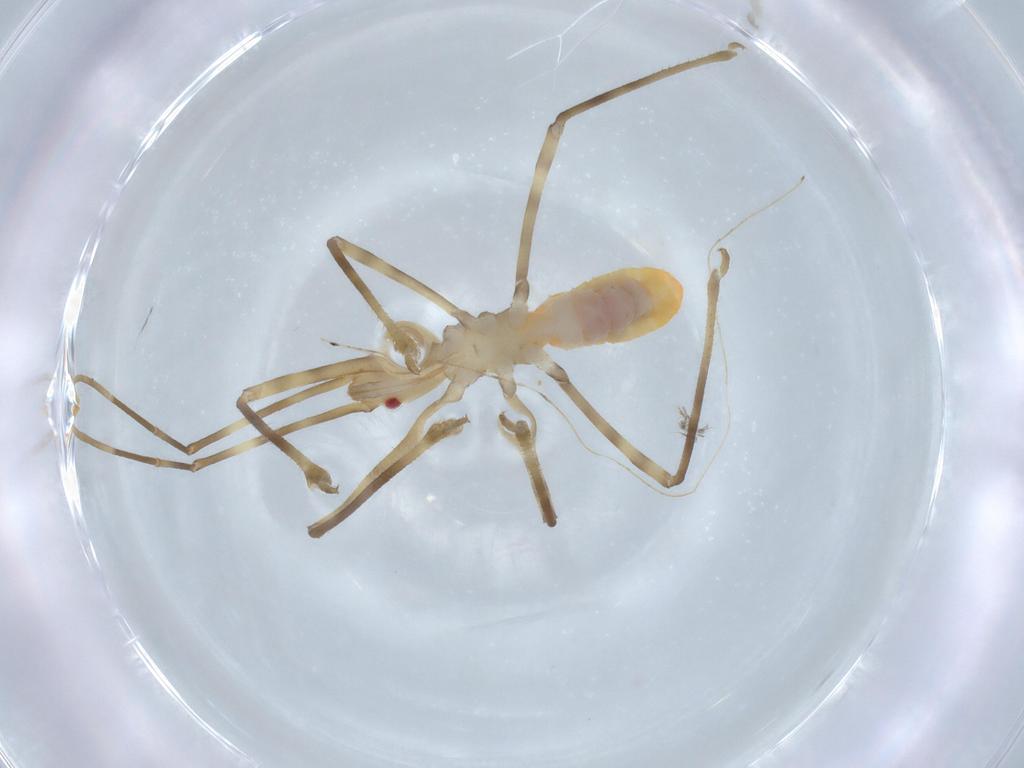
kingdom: Animalia
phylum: Arthropoda
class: Insecta
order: Hemiptera
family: Reduviidae
